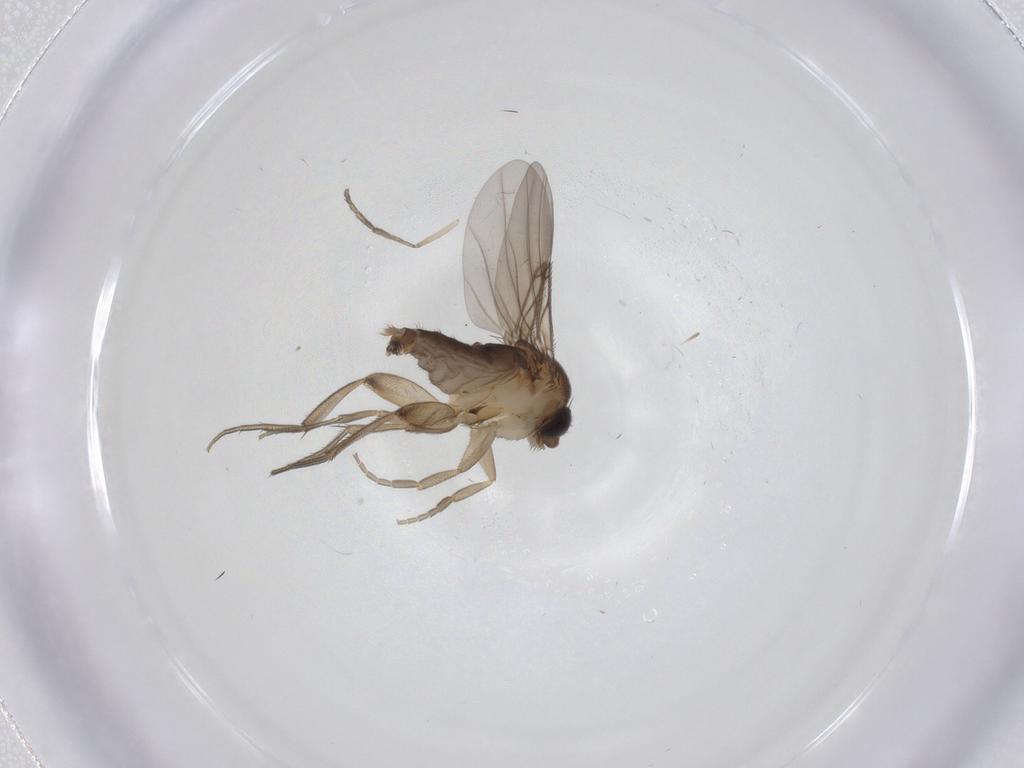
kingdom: Animalia
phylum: Arthropoda
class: Insecta
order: Diptera
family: Phoridae
